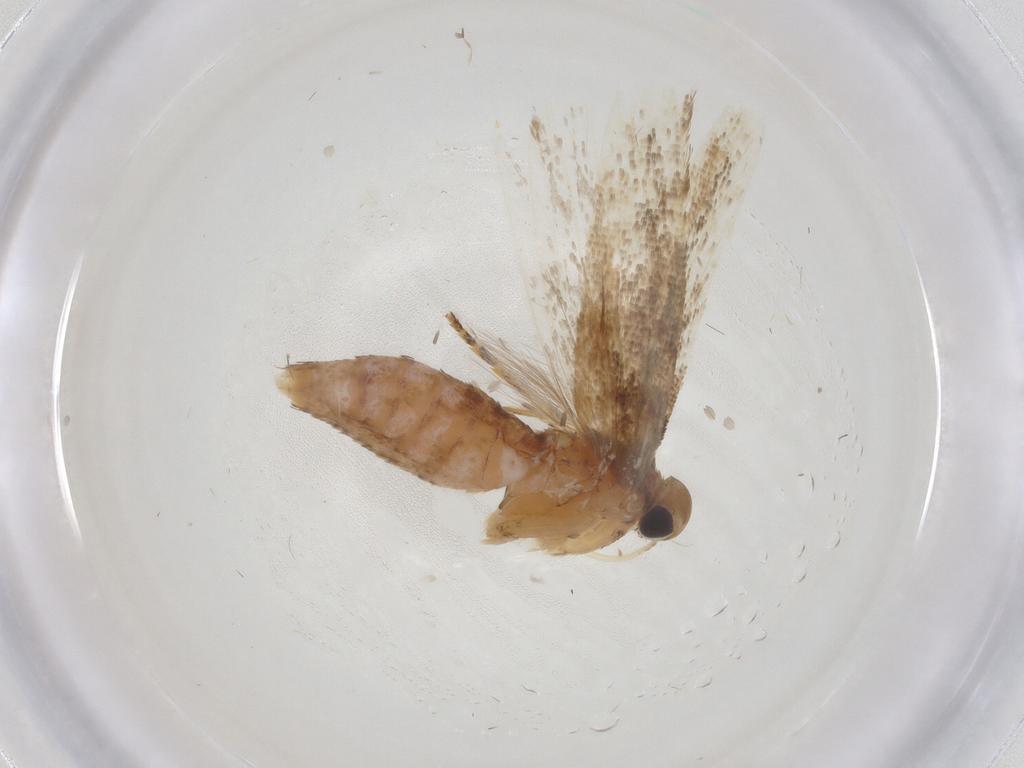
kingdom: Animalia
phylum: Arthropoda
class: Insecta
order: Lepidoptera
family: Gelechiidae
